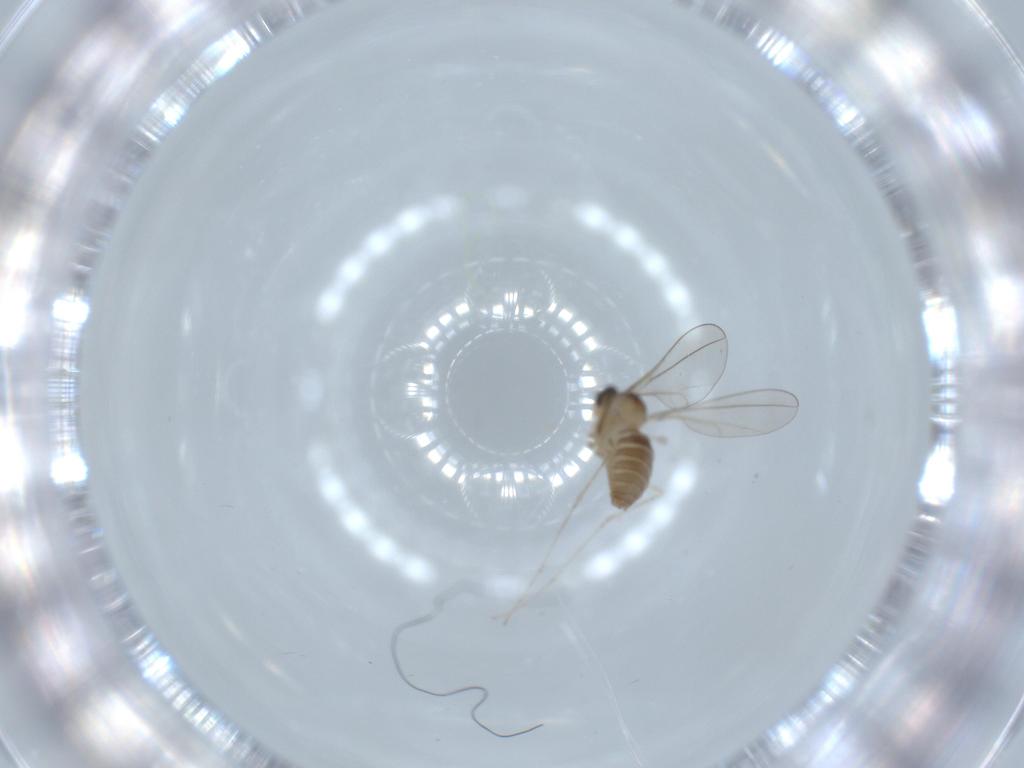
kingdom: Animalia
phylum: Arthropoda
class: Insecta
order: Diptera
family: Cecidomyiidae
